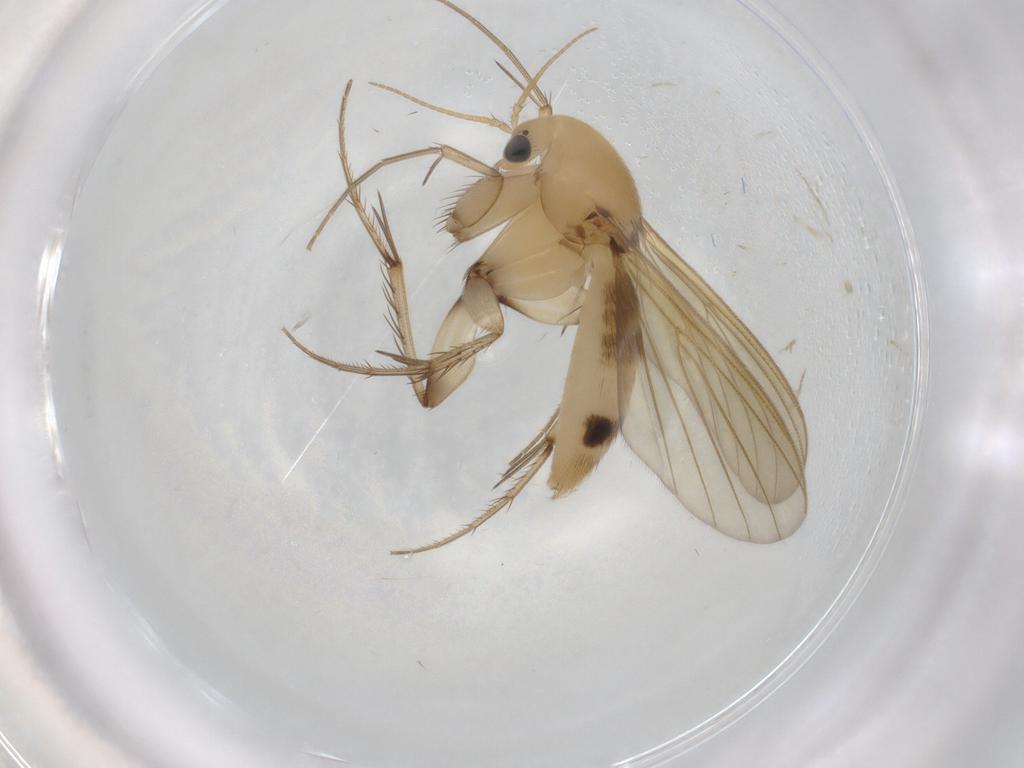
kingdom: Animalia
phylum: Arthropoda
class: Insecta
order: Diptera
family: Mycetophilidae
